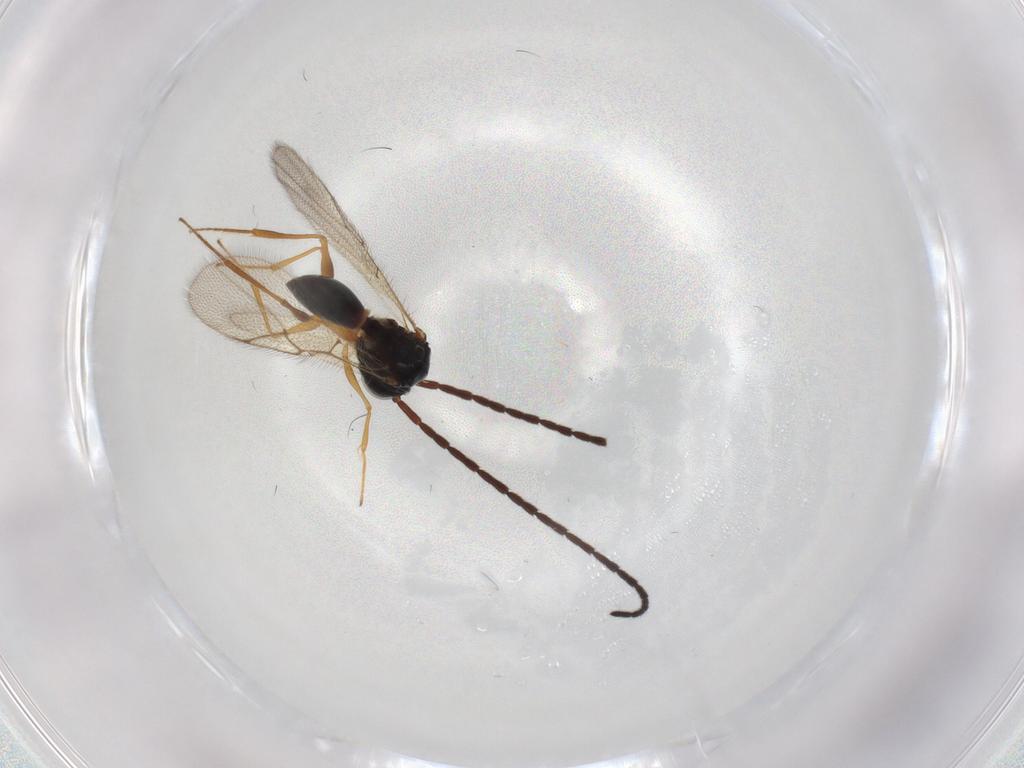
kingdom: Animalia
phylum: Arthropoda
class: Insecta
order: Hymenoptera
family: Figitidae
